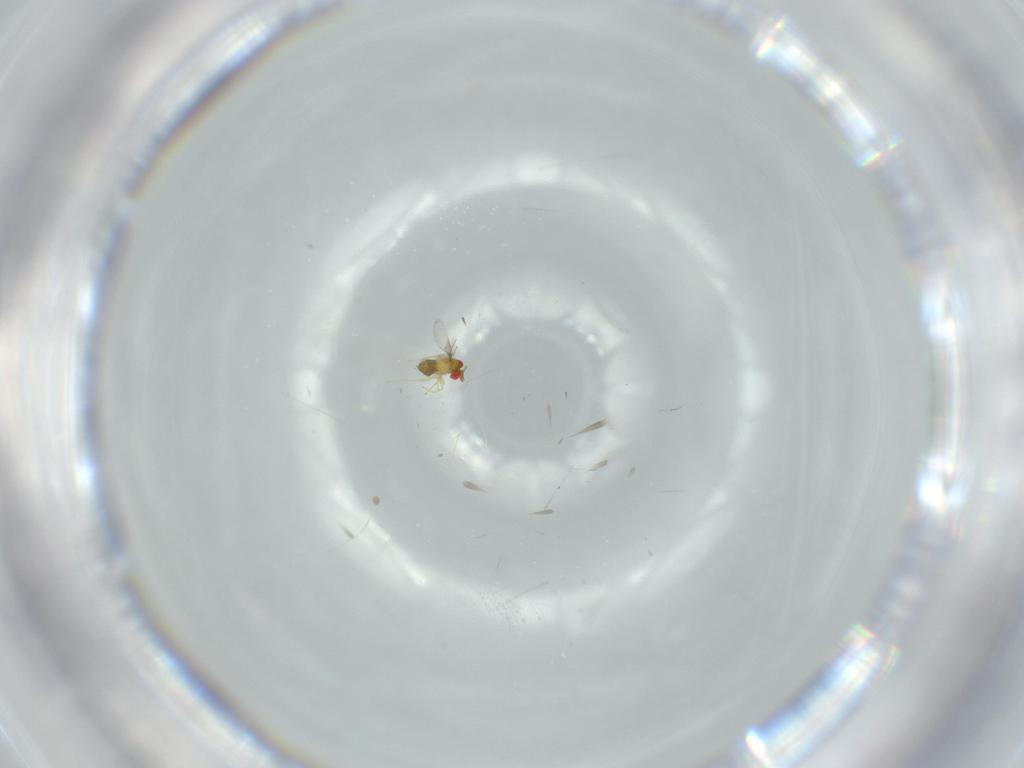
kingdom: Animalia
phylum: Arthropoda
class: Insecta
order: Hymenoptera
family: Trichogrammatidae
